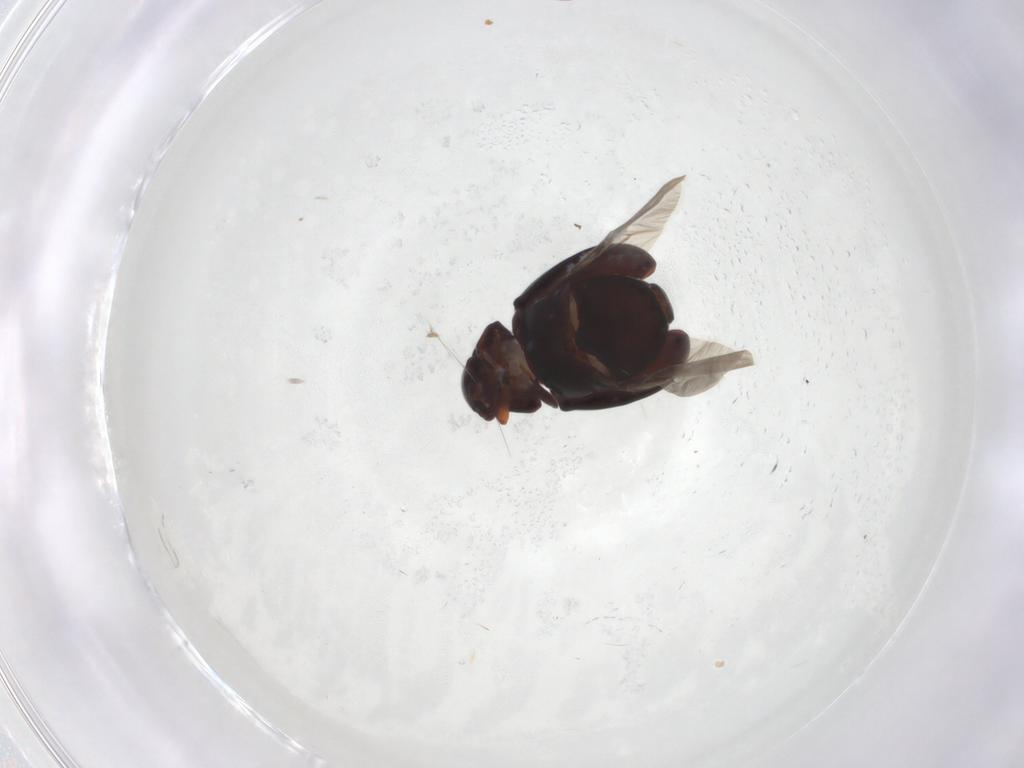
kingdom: Animalia
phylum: Arthropoda
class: Insecta
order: Coleoptera
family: Ptinidae
